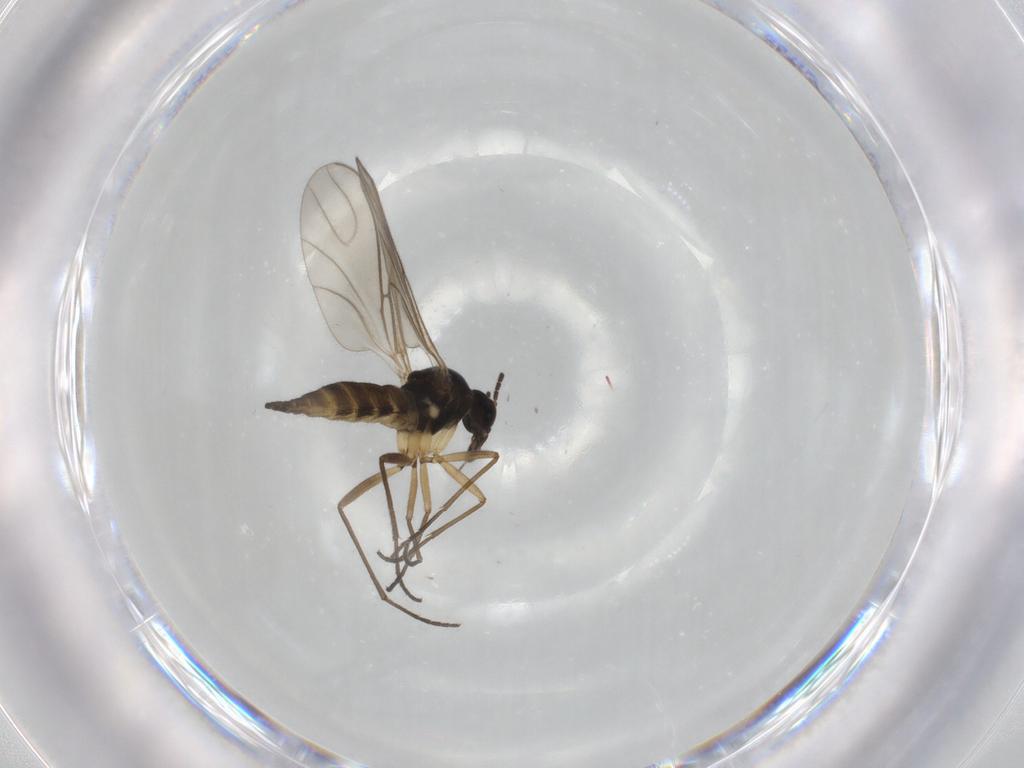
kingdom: Animalia
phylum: Arthropoda
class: Insecta
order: Diptera
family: Sciaridae
